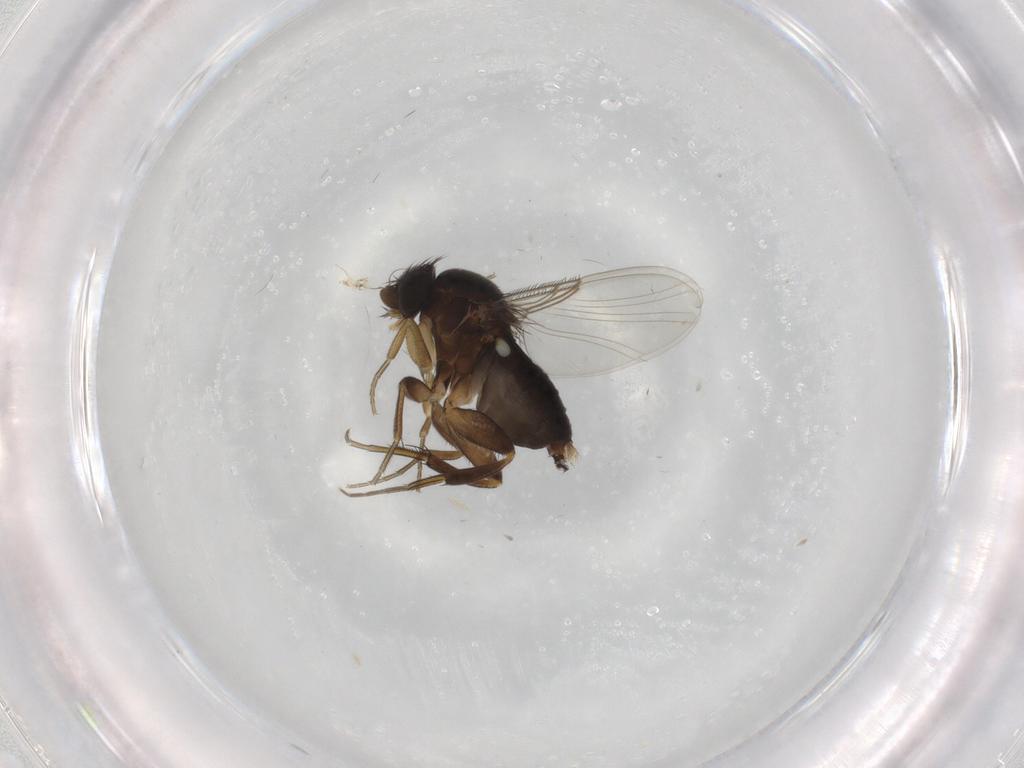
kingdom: Animalia
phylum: Arthropoda
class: Insecta
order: Diptera
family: Phoridae
